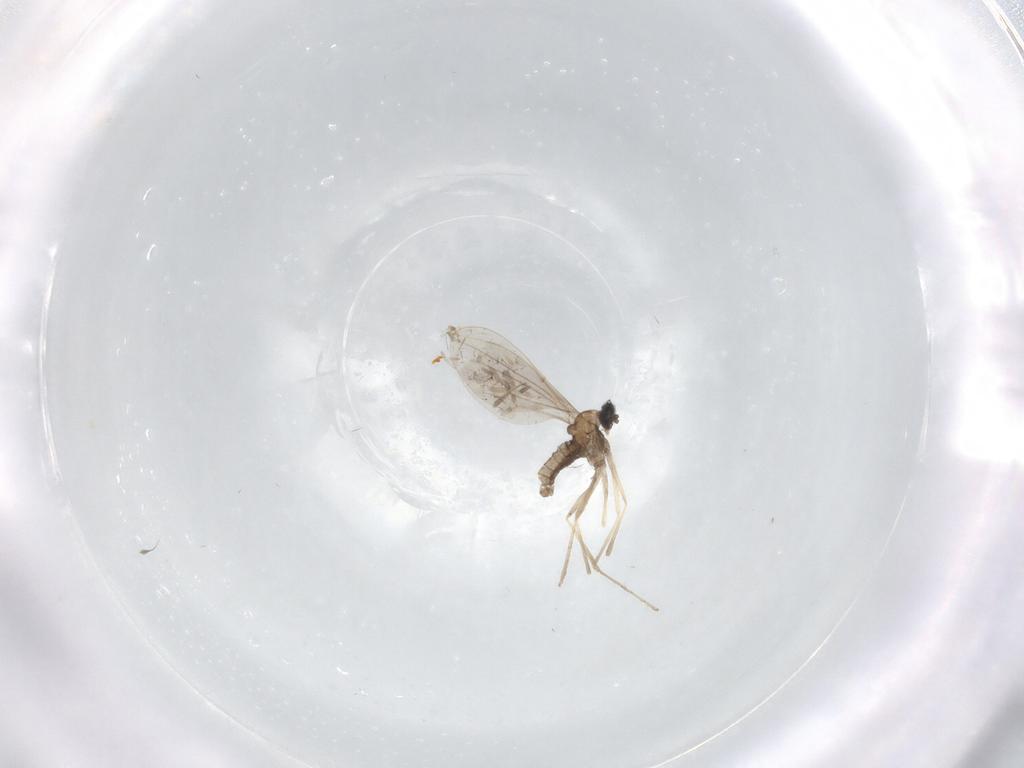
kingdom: Animalia
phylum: Arthropoda
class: Insecta
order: Diptera
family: Cecidomyiidae
